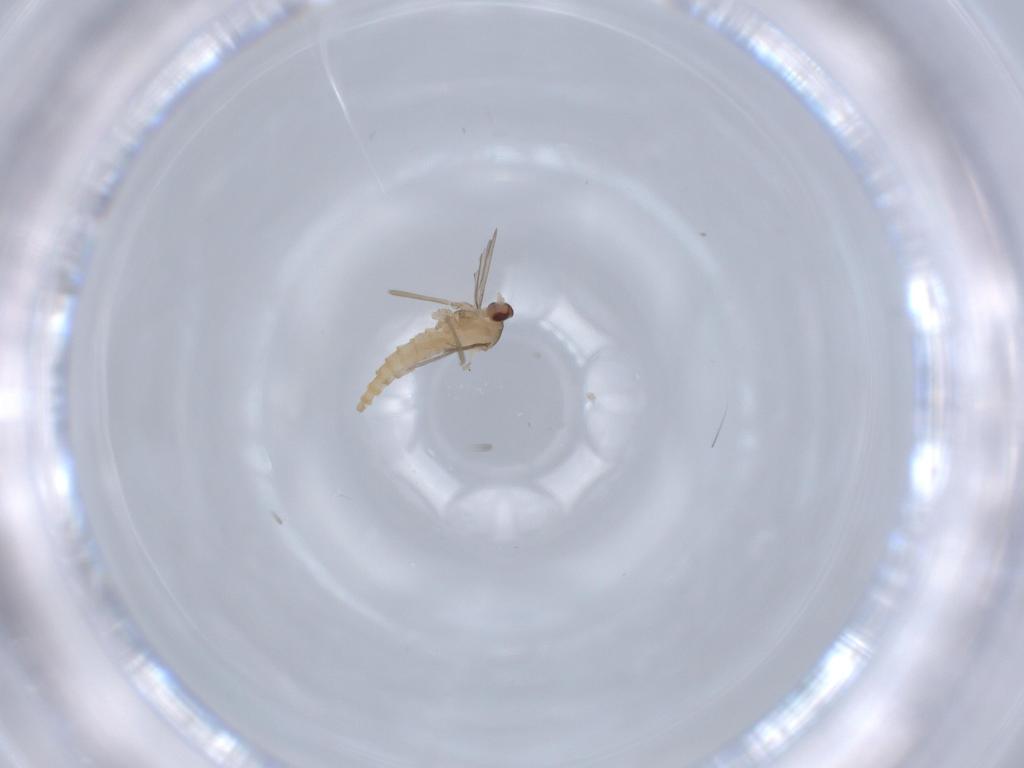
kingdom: Animalia
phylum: Arthropoda
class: Insecta
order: Diptera
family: Cecidomyiidae
